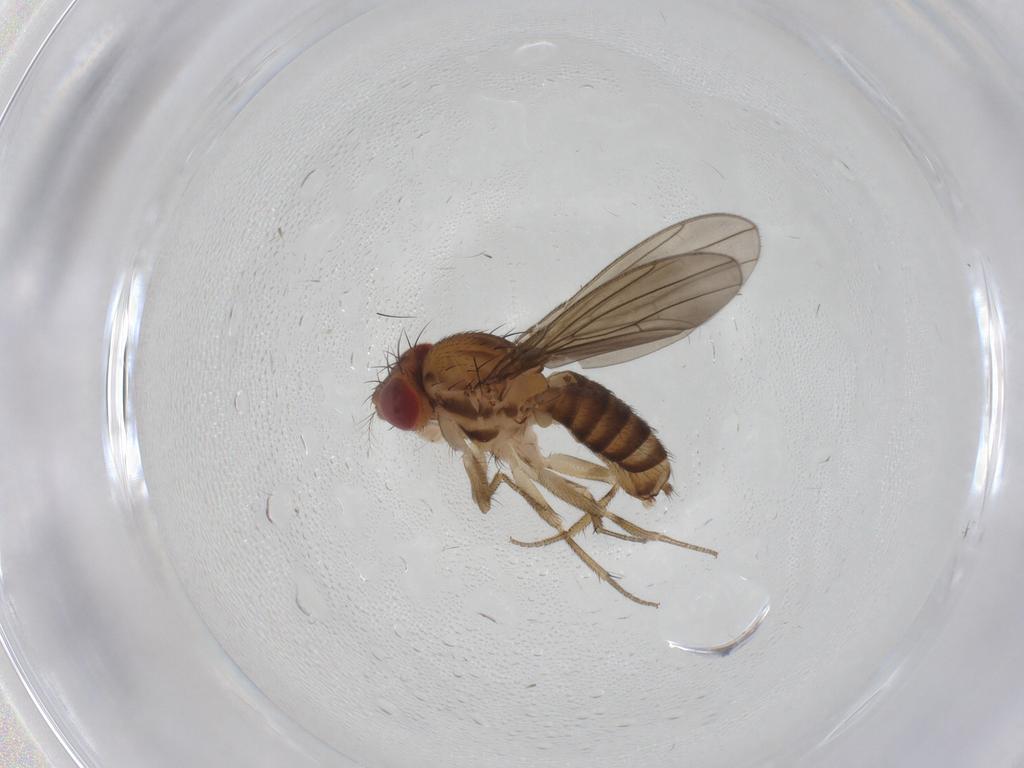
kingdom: Animalia
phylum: Arthropoda
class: Insecta
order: Diptera
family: Drosophilidae
